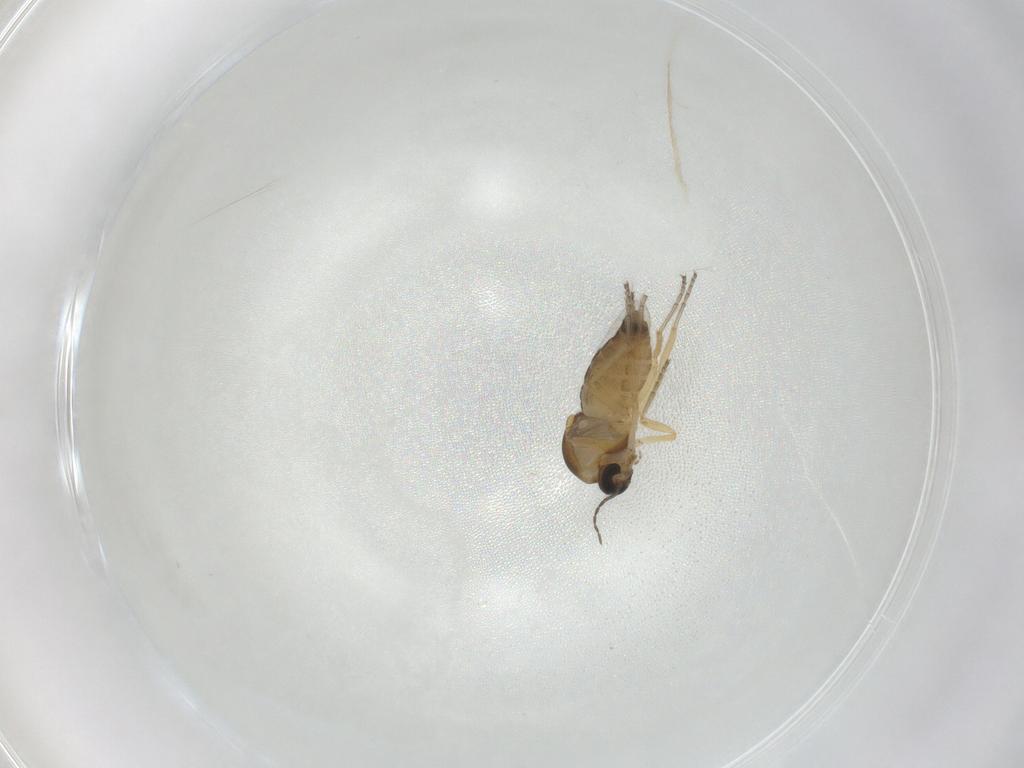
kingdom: Animalia
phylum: Arthropoda
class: Insecta
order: Diptera
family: Ceratopogonidae
